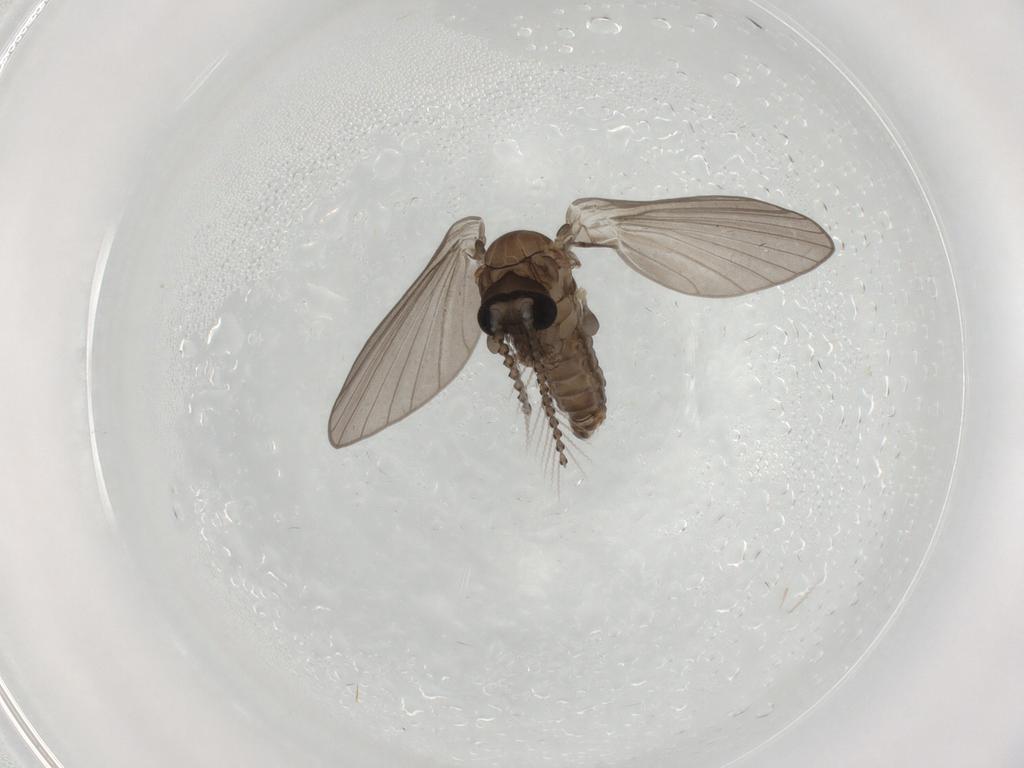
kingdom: Animalia
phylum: Arthropoda
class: Insecta
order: Diptera
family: Psychodidae
